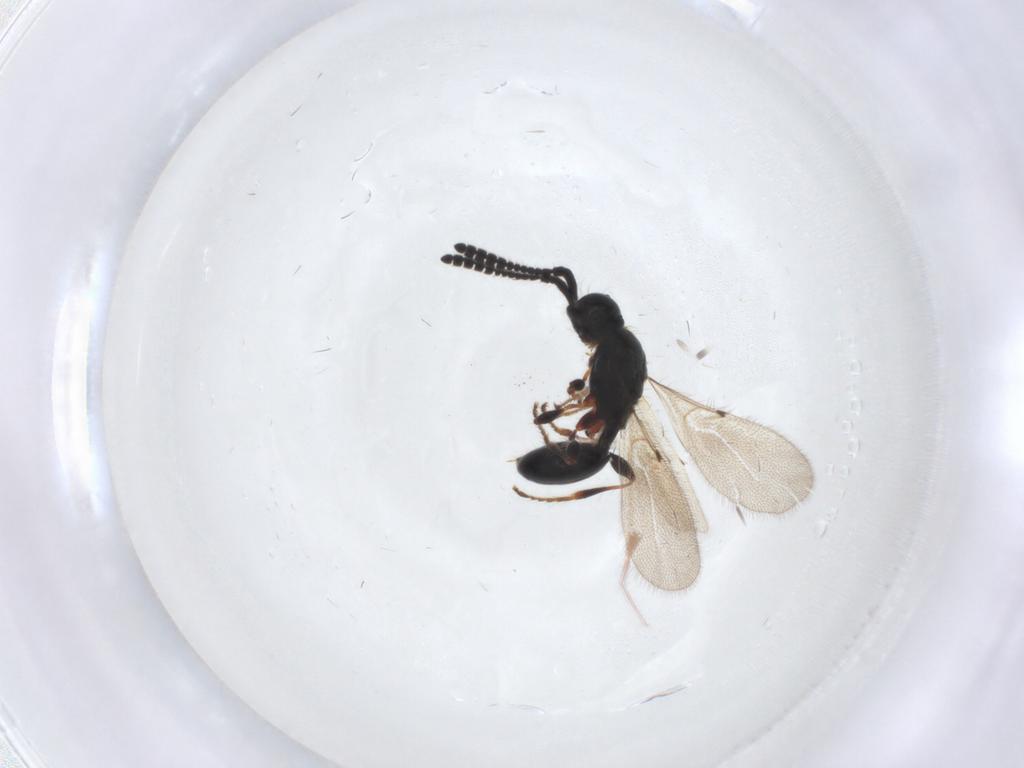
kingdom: Animalia
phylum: Arthropoda
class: Insecta
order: Hymenoptera
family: Diapriidae
